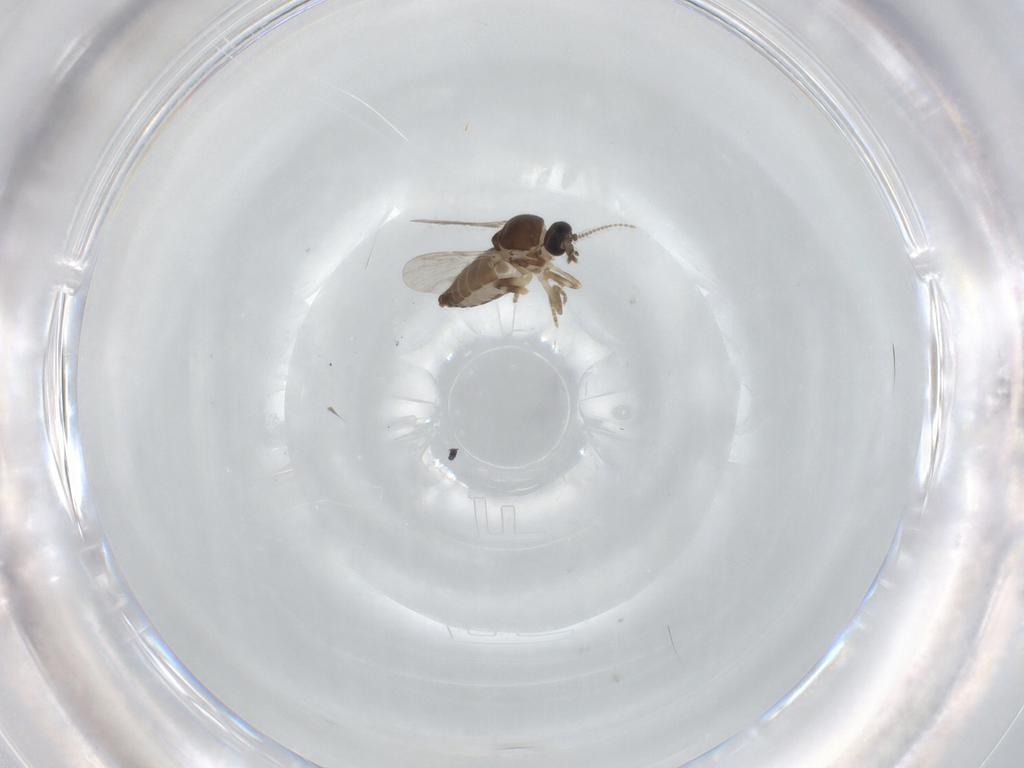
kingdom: Animalia
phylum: Arthropoda
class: Insecta
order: Diptera
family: Ceratopogonidae
